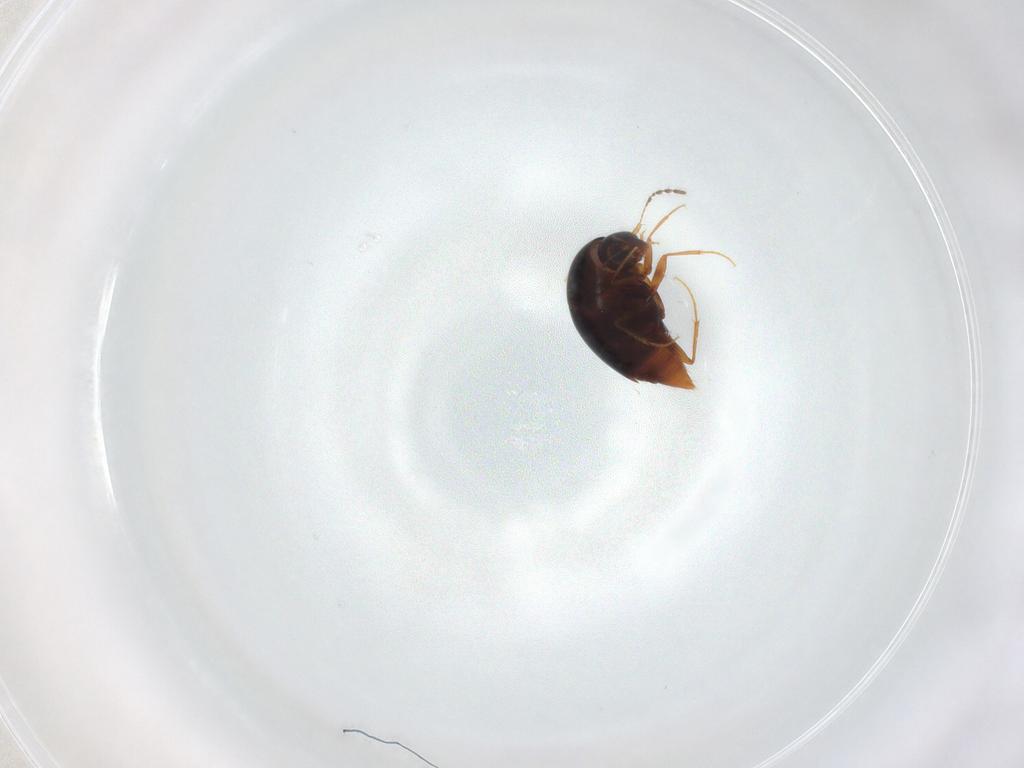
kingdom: Animalia
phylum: Arthropoda
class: Insecta
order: Coleoptera
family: Staphylinidae
